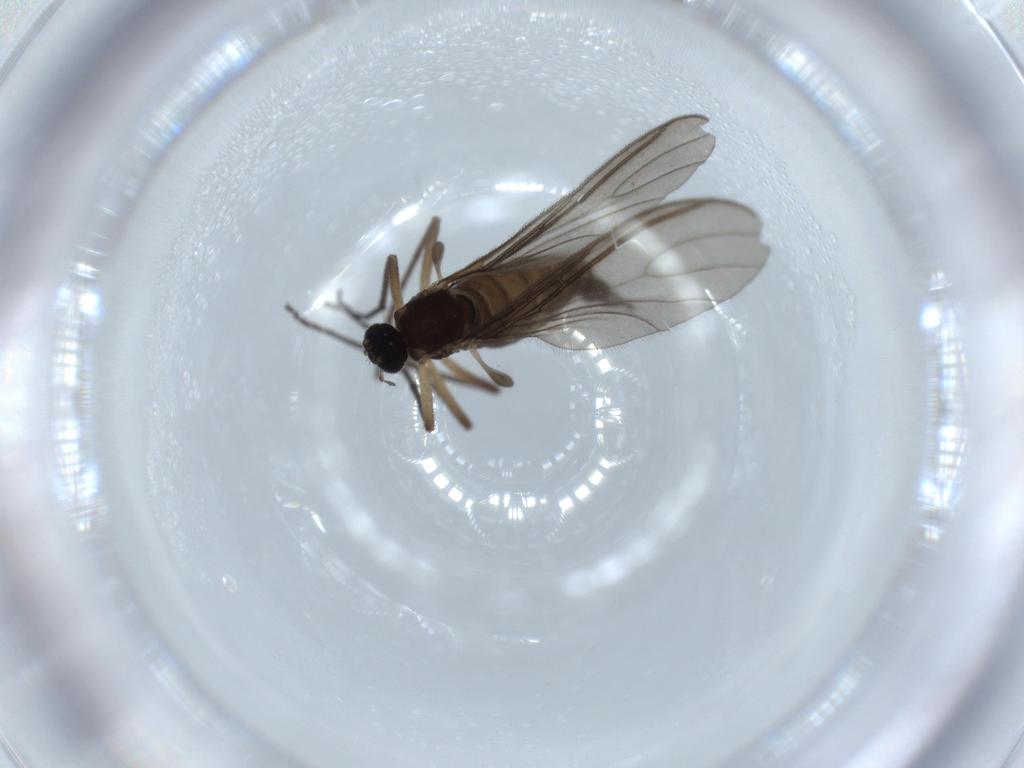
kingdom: Animalia
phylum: Arthropoda
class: Insecta
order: Diptera
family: Sciaridae
